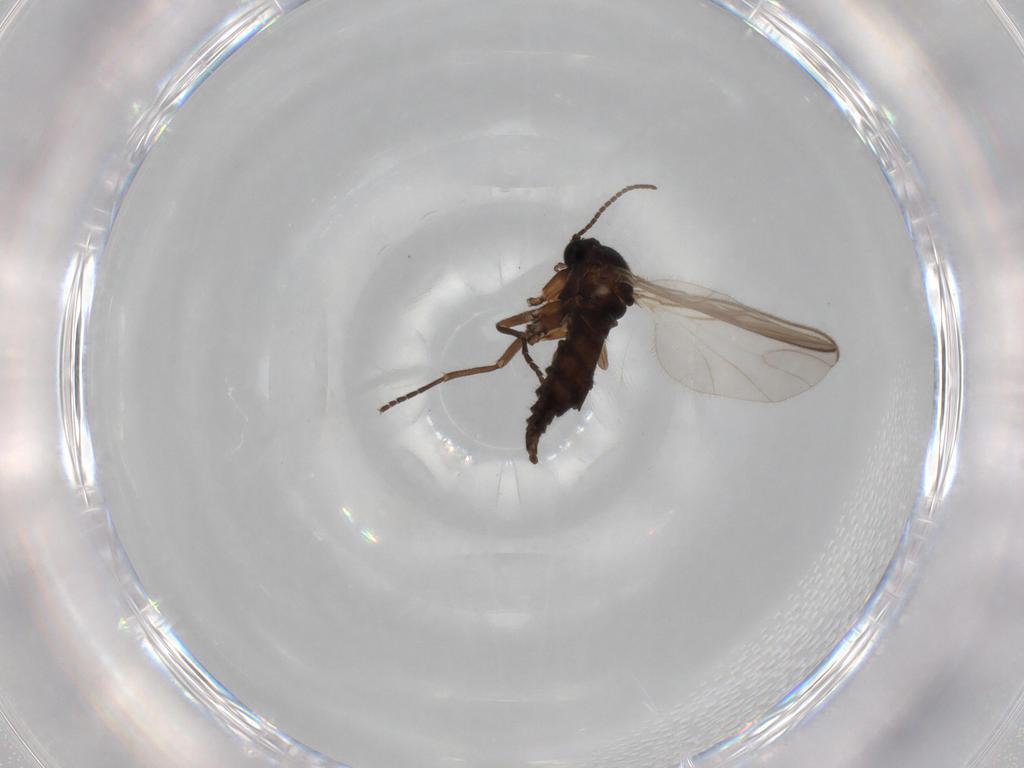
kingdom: Animalia
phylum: Arthropoda
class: Insecta
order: Diptera
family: Sciaridae
